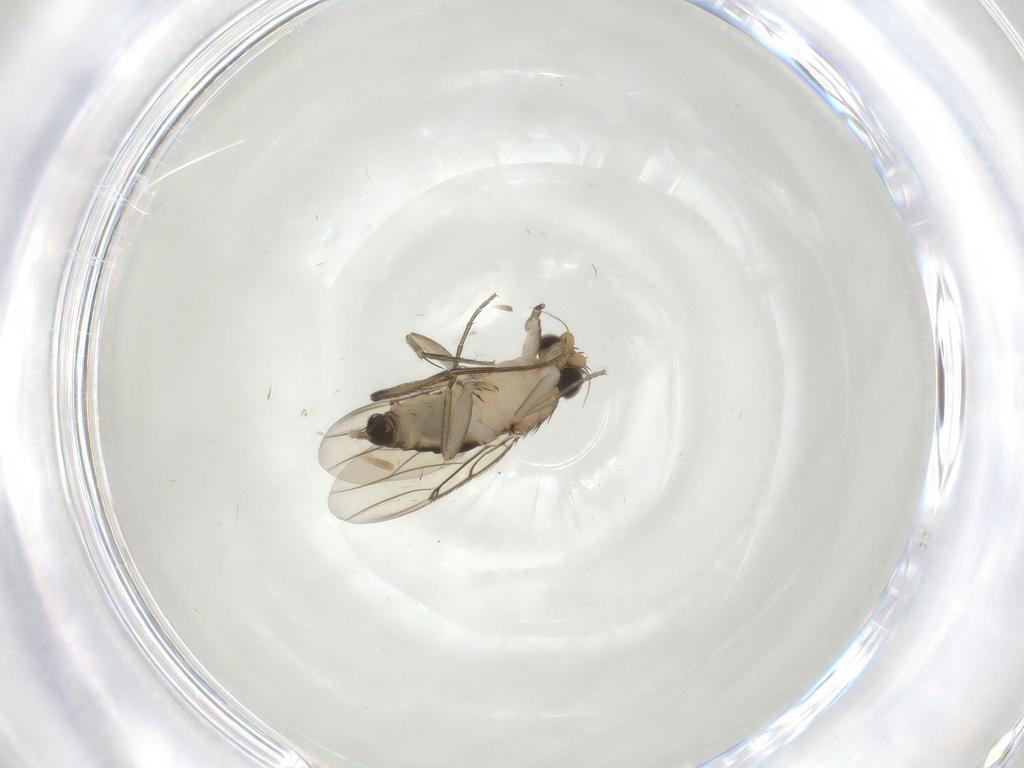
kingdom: Animalia
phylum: Arthropoda
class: Insecta
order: Diptera
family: Phoridae
